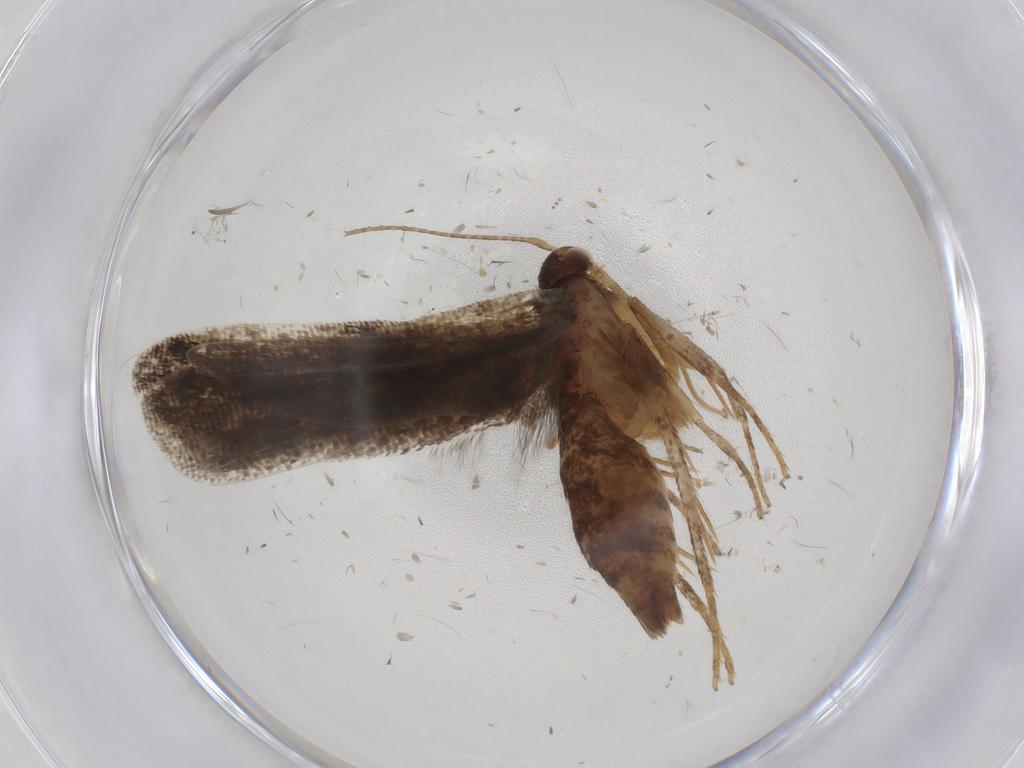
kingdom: Animalia
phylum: Arthropoda
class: Insecta
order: Lepidoptera
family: Gelechiidae
